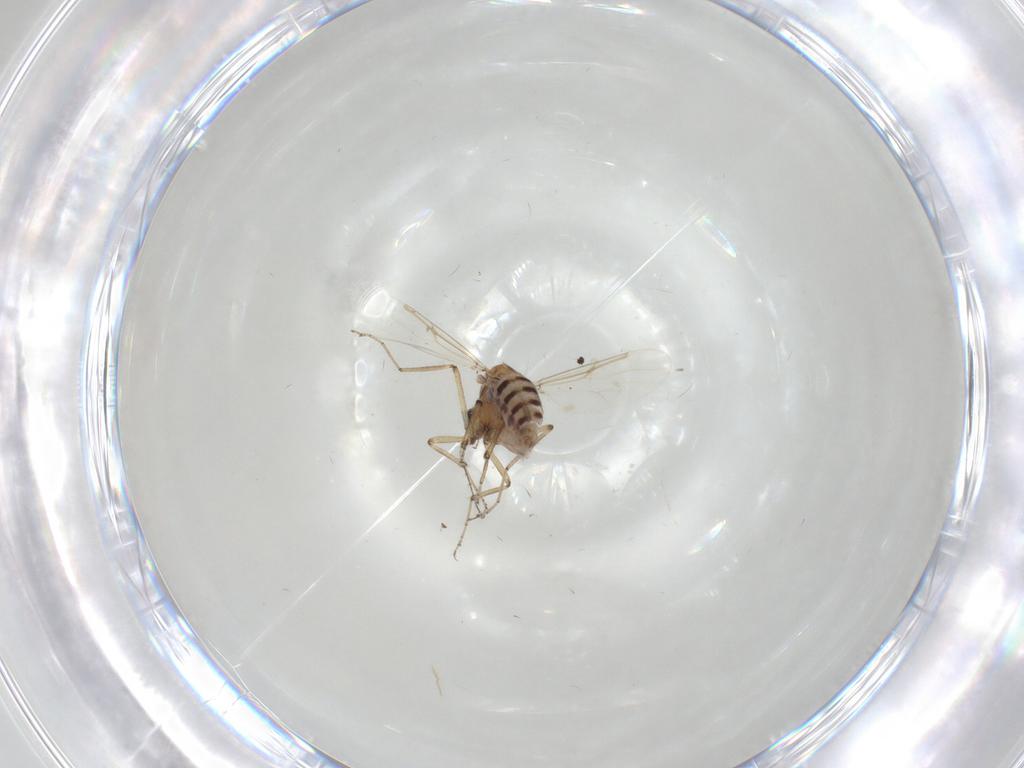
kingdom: Animalia
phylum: Arthropoda
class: Insecta
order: Diptera
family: Ceratopogonidae
